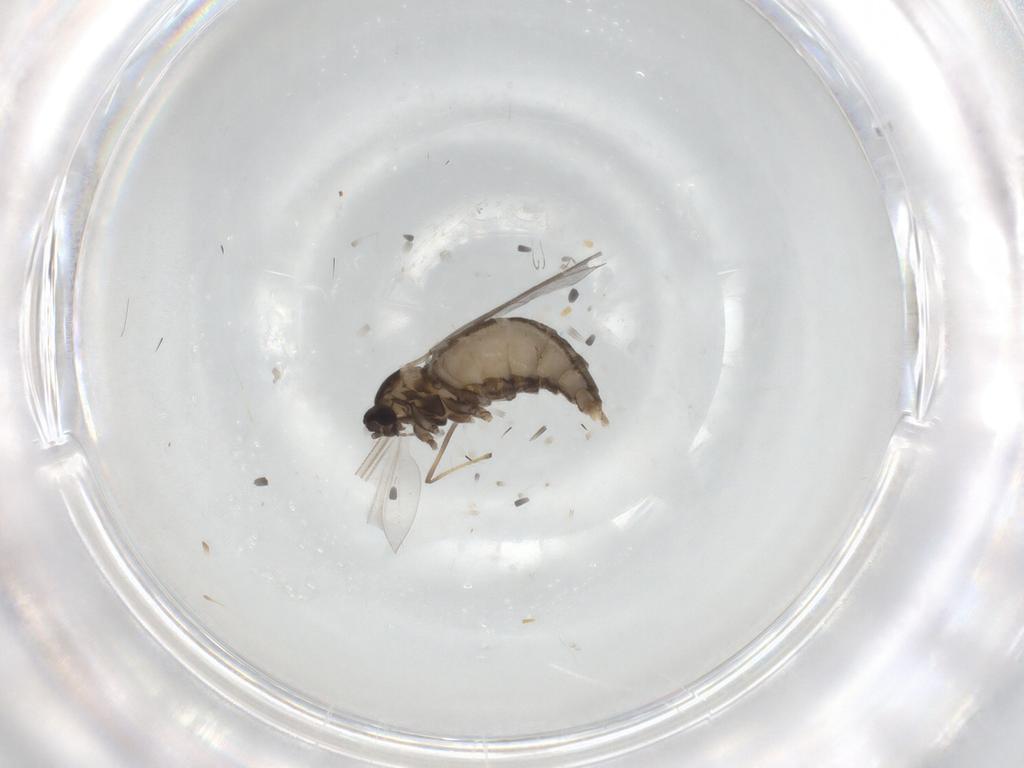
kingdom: Animalia
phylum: Arthropoda
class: Insecta
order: Diptera
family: Cecidomyiidae
